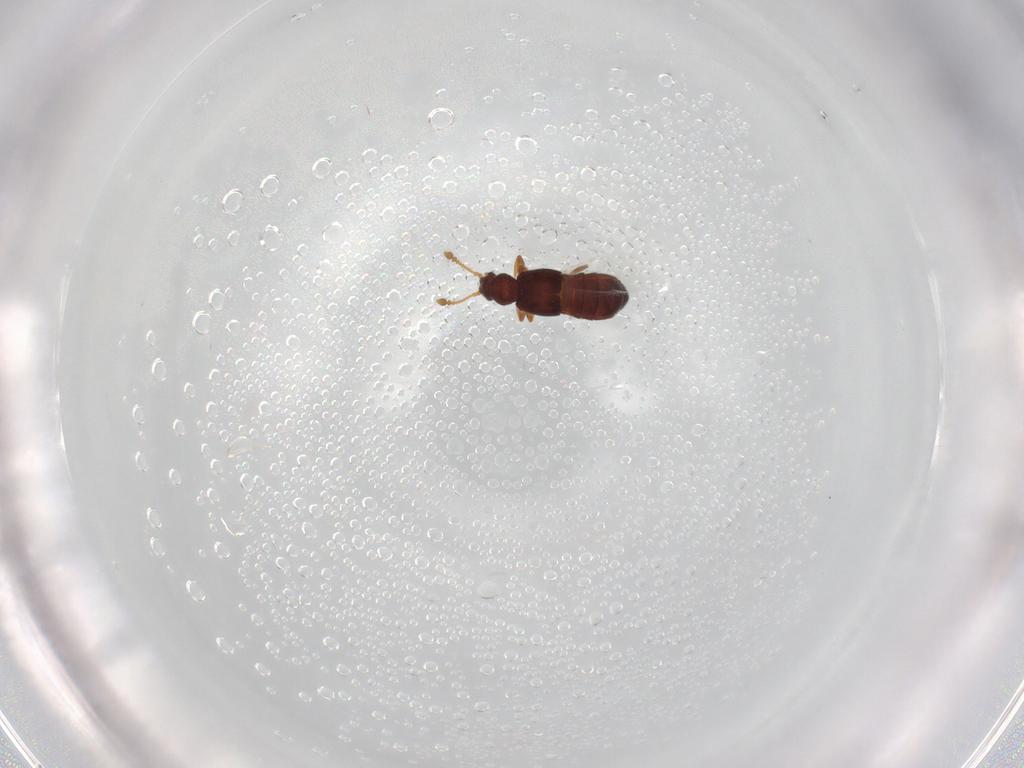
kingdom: Animalia
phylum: Arthropoda
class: Insecta
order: Coleoptera
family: Staphylinidae
